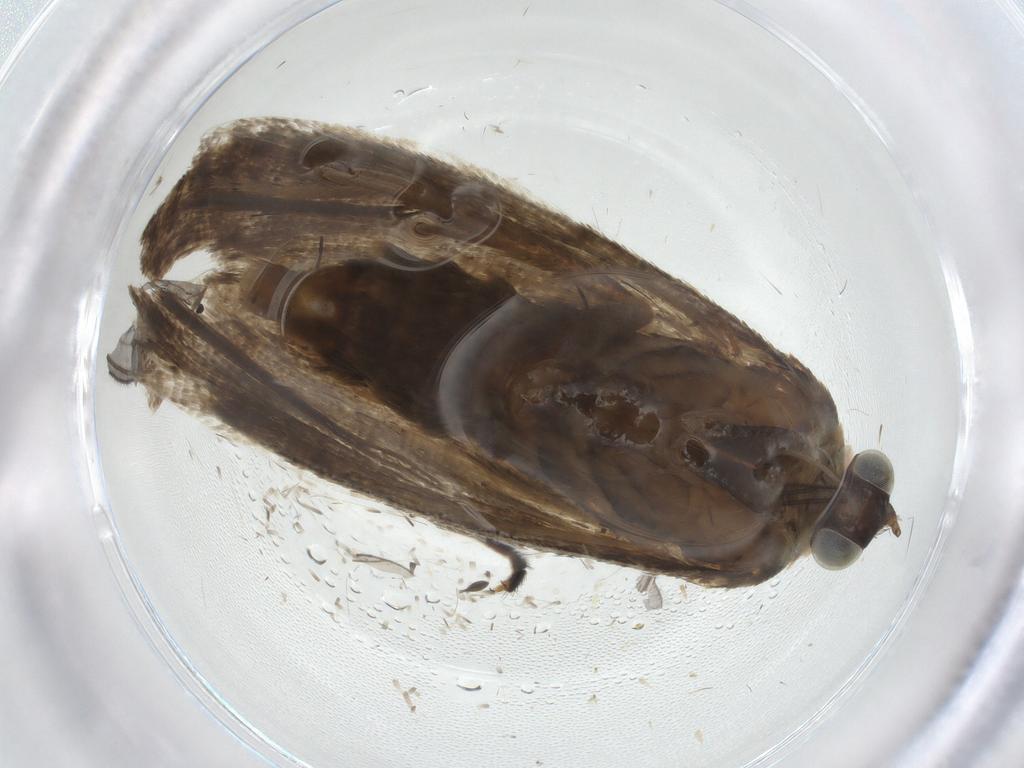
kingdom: Animalia
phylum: Arthropoda
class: Insecta
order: Lepidoptera
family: Tortricidae
